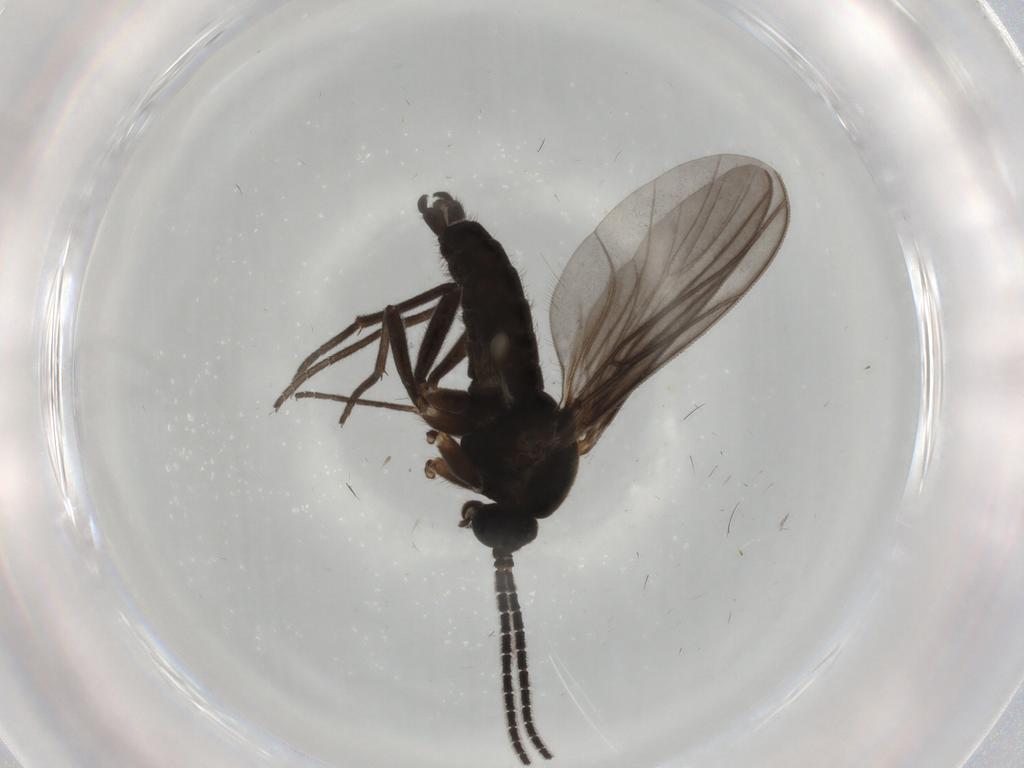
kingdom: Animalia
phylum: Arthropoda
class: Insecta
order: Diptera
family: Sciaridae
